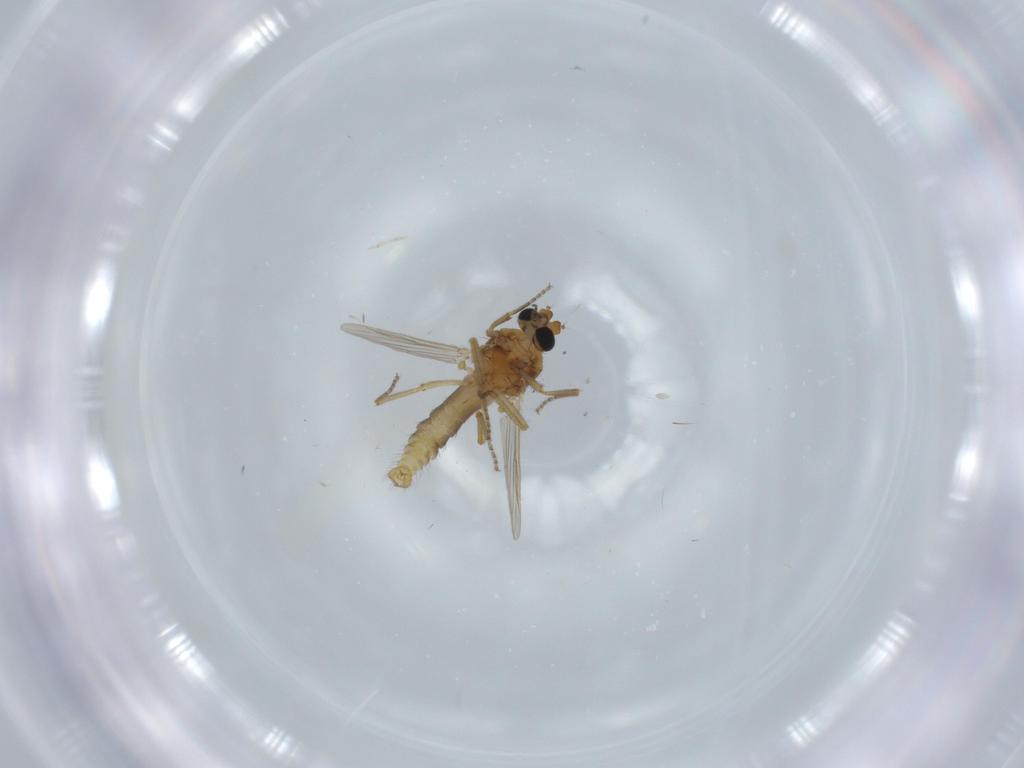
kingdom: Animalia
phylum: Arthropoda
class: Insecta
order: Diptera
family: Ceratopogonidae
